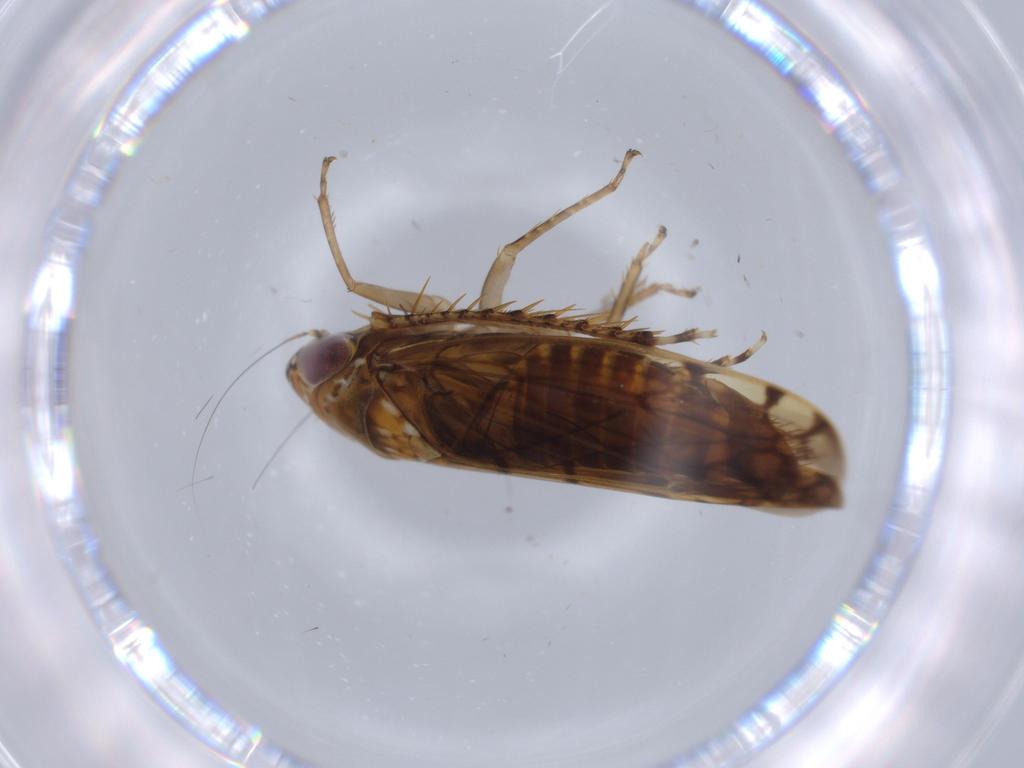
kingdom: Animalia
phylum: Arthropoda
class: Insecta
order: Hemiptera
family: Cicadellidae
